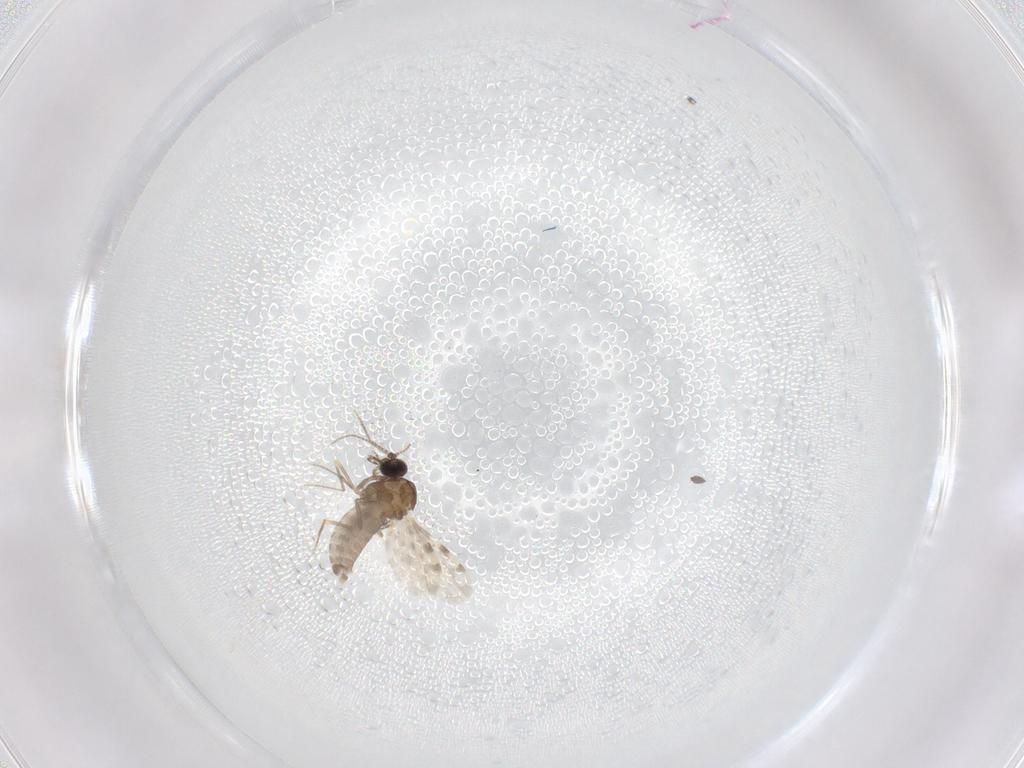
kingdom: Animalia
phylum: Arthropoda
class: Insecta
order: Diptera
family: Ceratopogonidae
